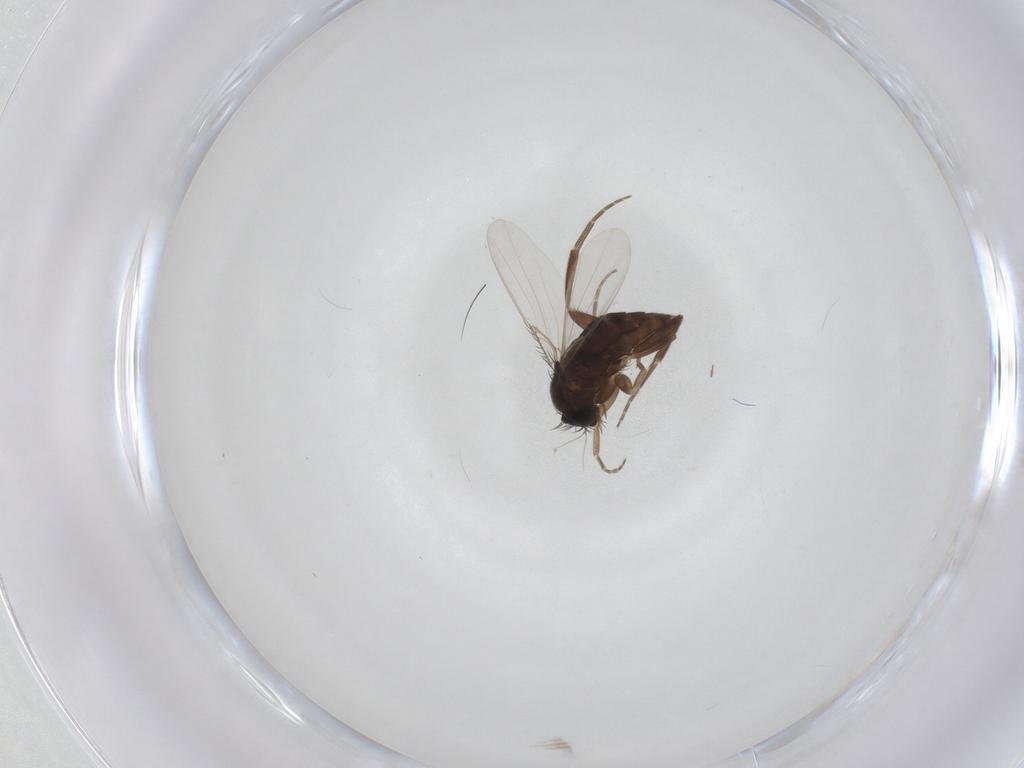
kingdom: Animalia
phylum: Arthropoda
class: Insecta
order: Diptera
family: Phoridae
